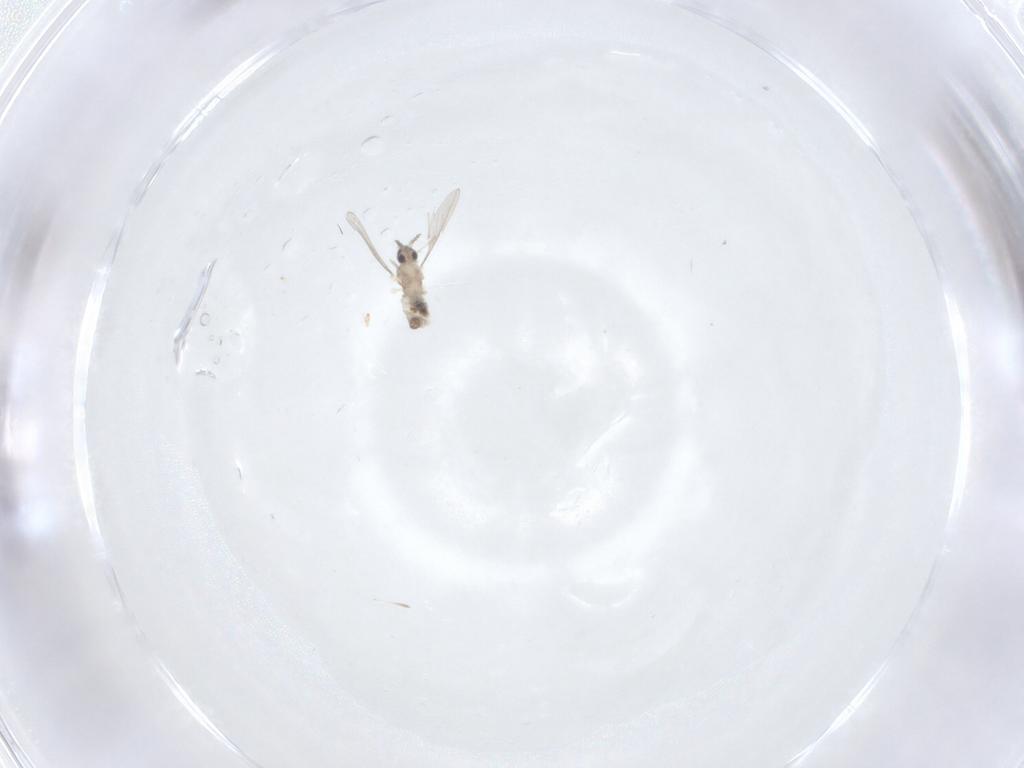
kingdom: Animalia
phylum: Arthropoda
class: Insecta
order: Diptera
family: Cecidomyiidae
